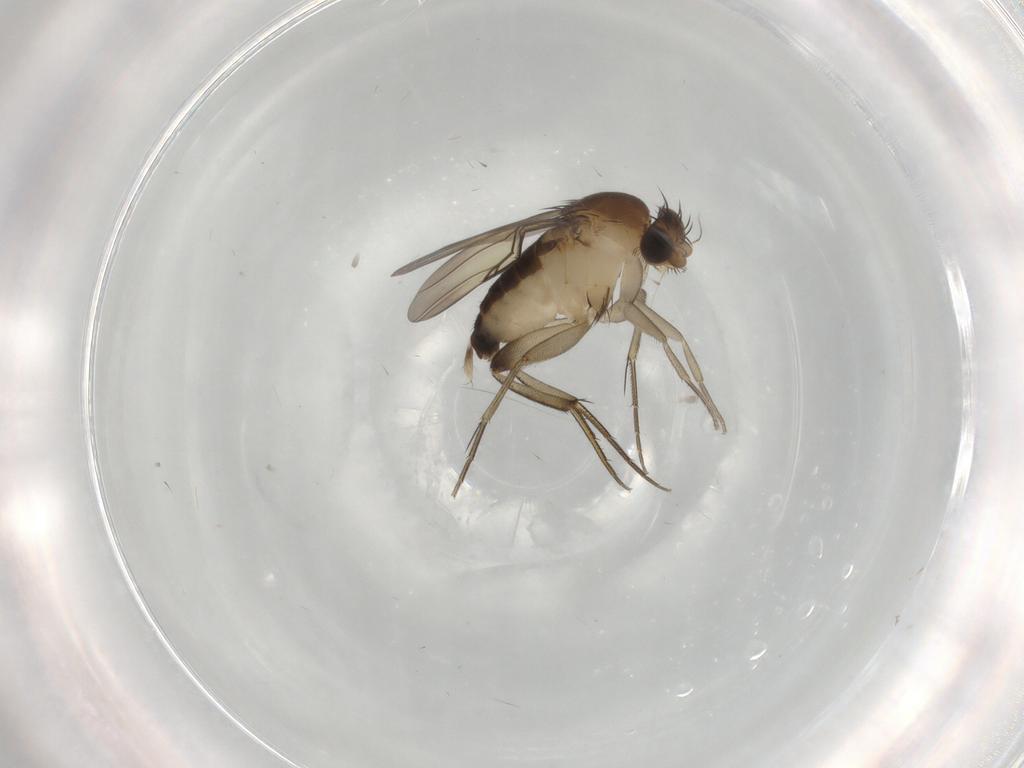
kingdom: Animalia
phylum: Arthropoda
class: Insecta
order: Diptera
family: Phoridae
